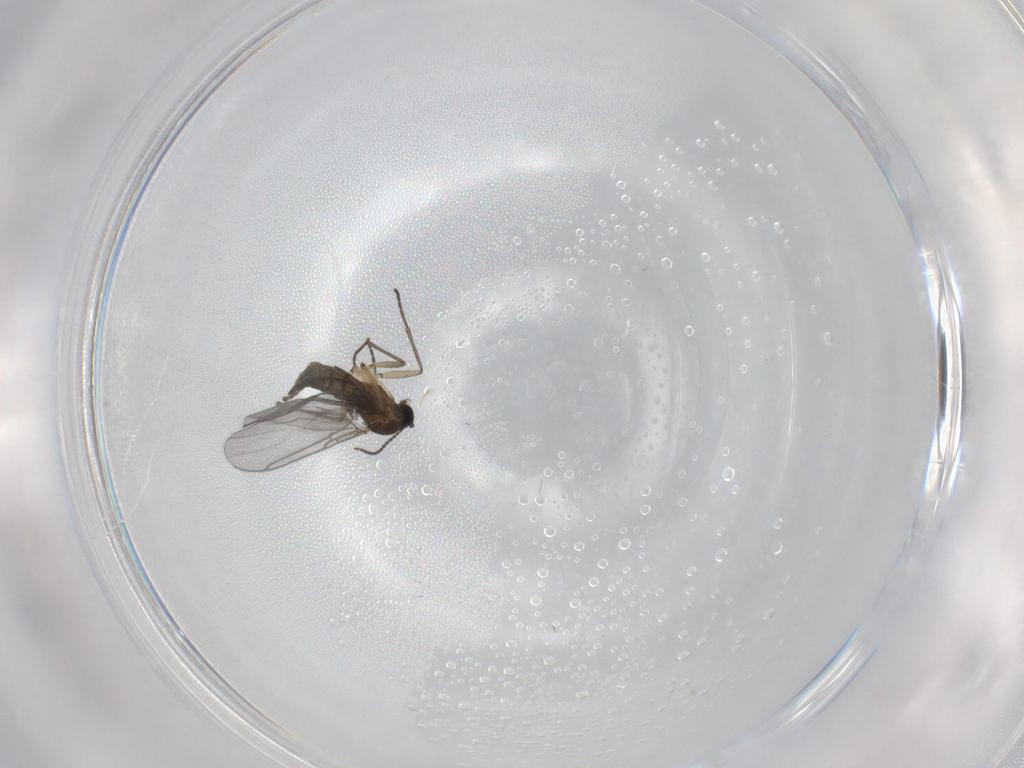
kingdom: Animalia
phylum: Arthropoda
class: Insecta
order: Diptera
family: Sciaridae
